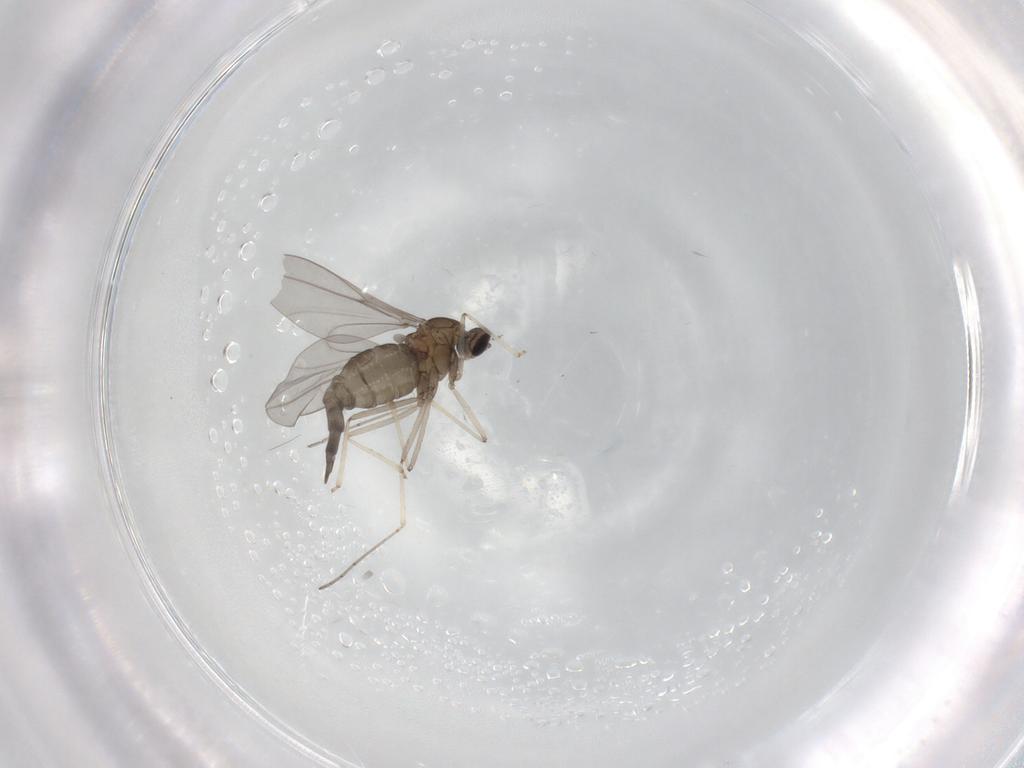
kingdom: Animalia
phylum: Arthropoda
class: Insecta
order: Diptera
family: Cecidomyiidae
